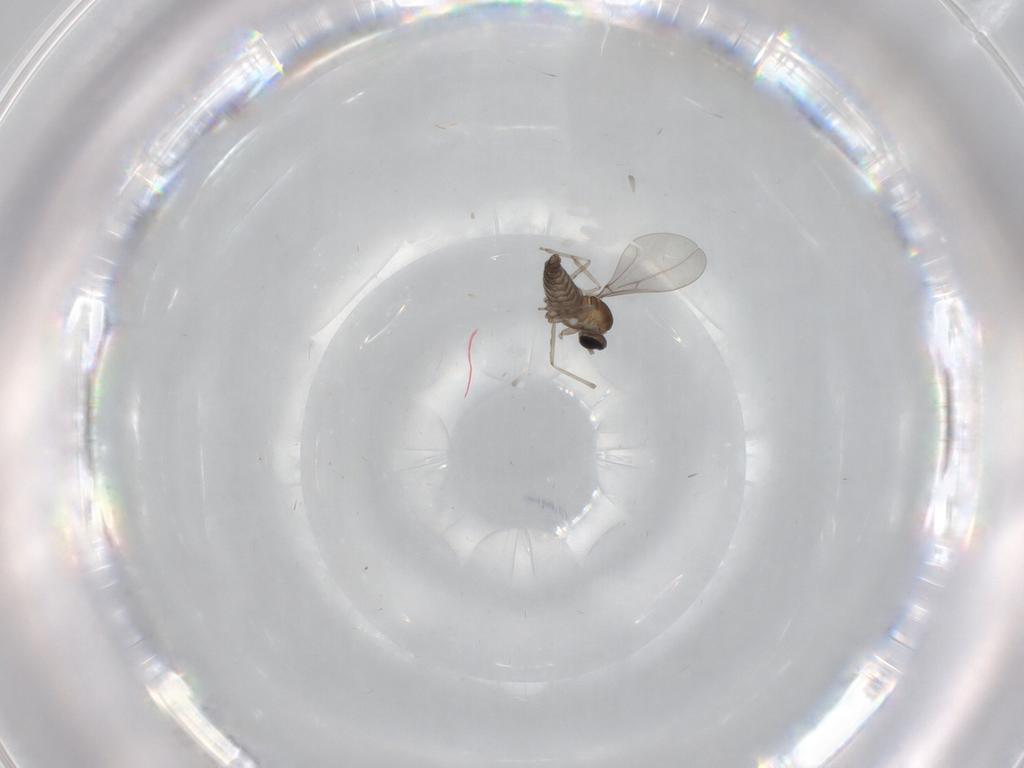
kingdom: Animalia
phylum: Arthropoda
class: Insecta
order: Diptera
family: Cecidomyiidae
